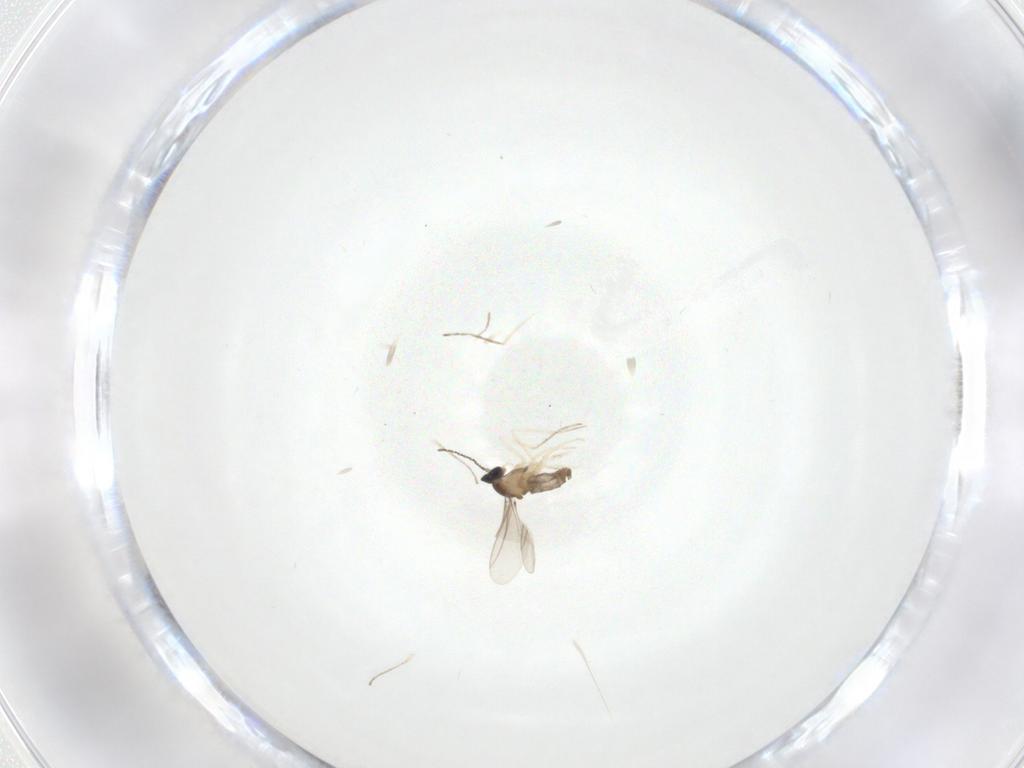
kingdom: Animalia
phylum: Arthropoda
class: Insecta
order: Diptera
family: Cecidomyiidae
